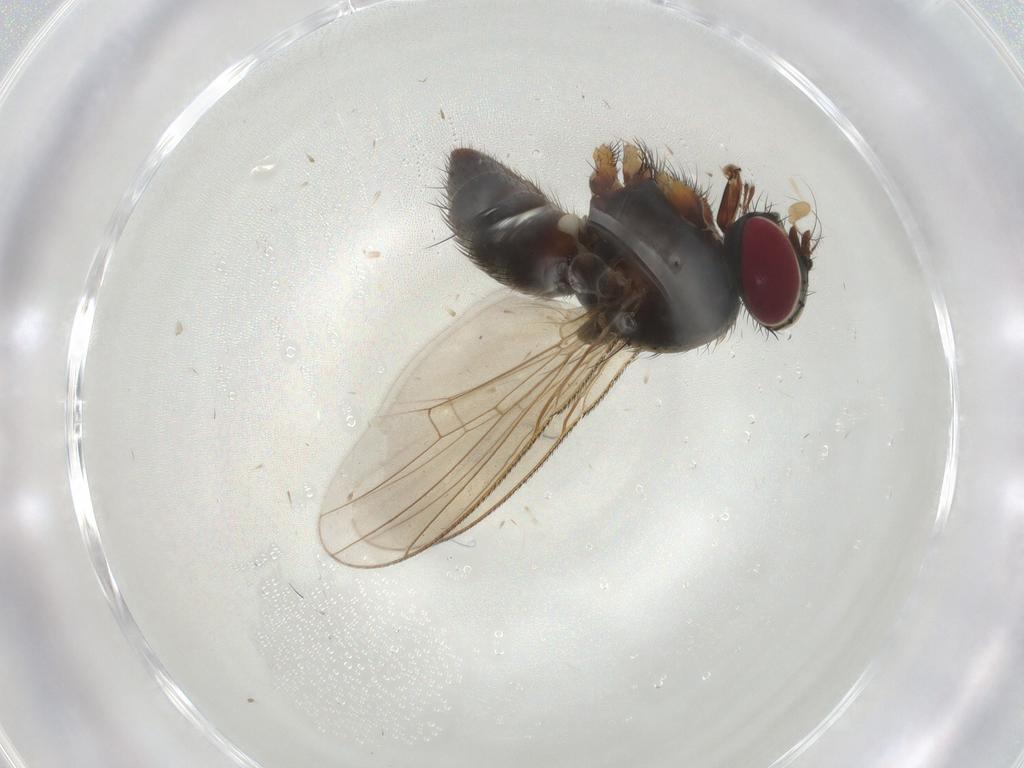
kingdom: Animalia
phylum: Arthropoda
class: Insecta
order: Diptera
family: Muscidae
